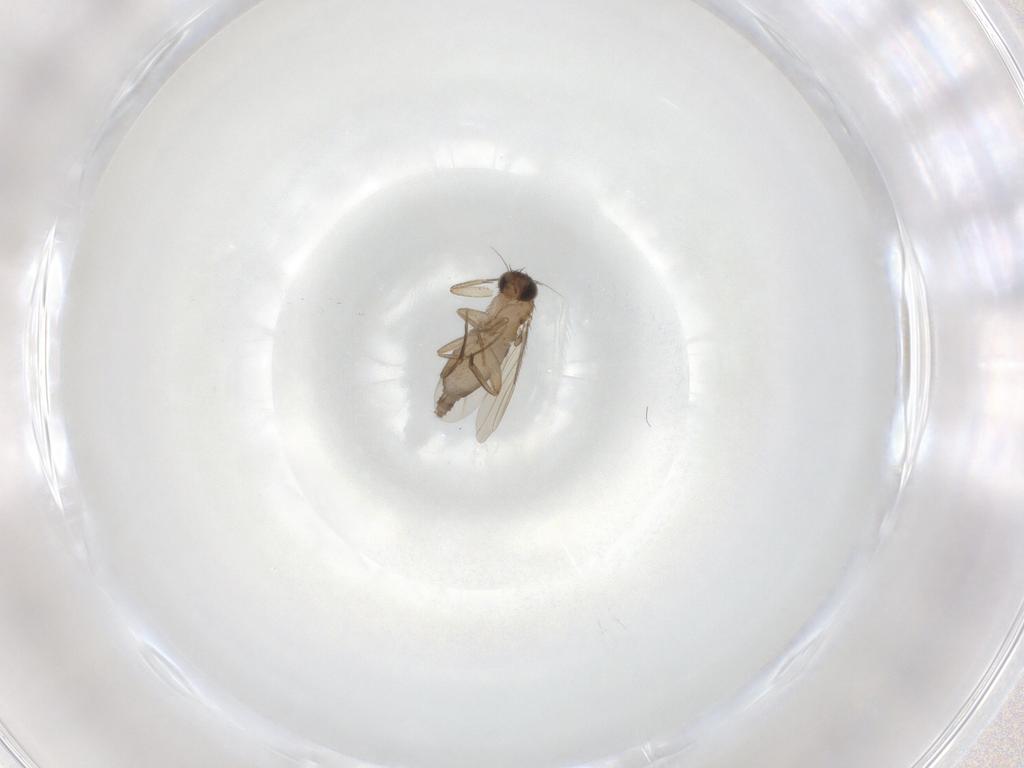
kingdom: Animalia
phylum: Arthropoda
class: Insecta
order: Diptera
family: Phoridae
